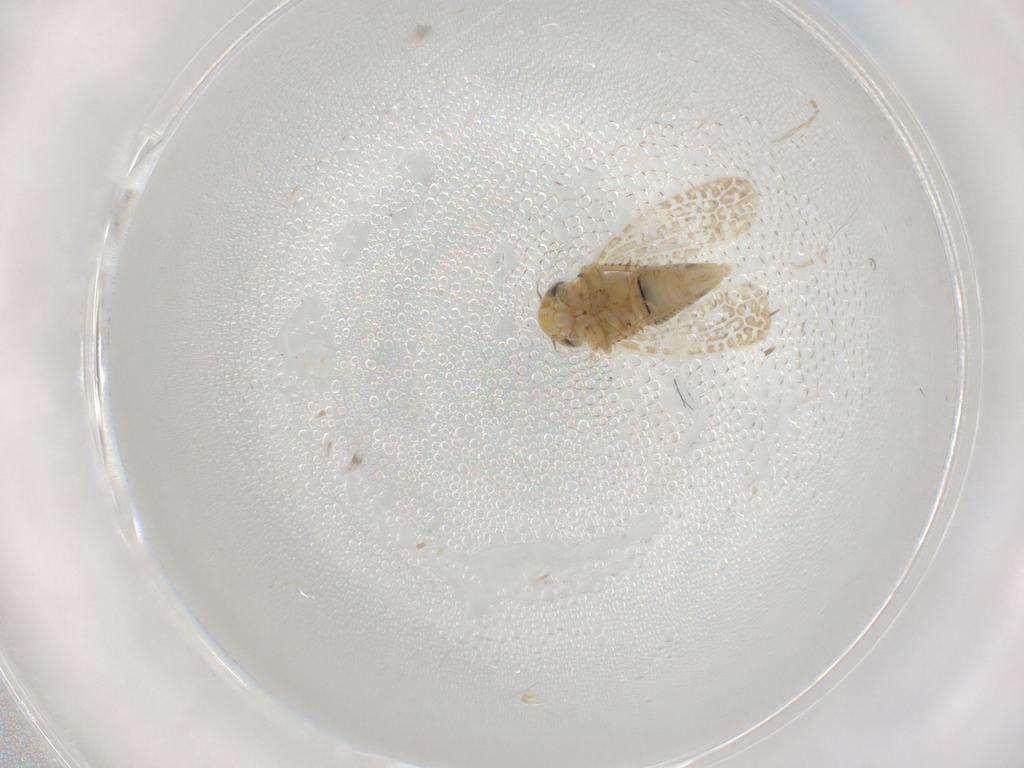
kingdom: Animalia
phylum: Arthropoda
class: Insecta
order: Hemiptera
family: Cicadellidae
